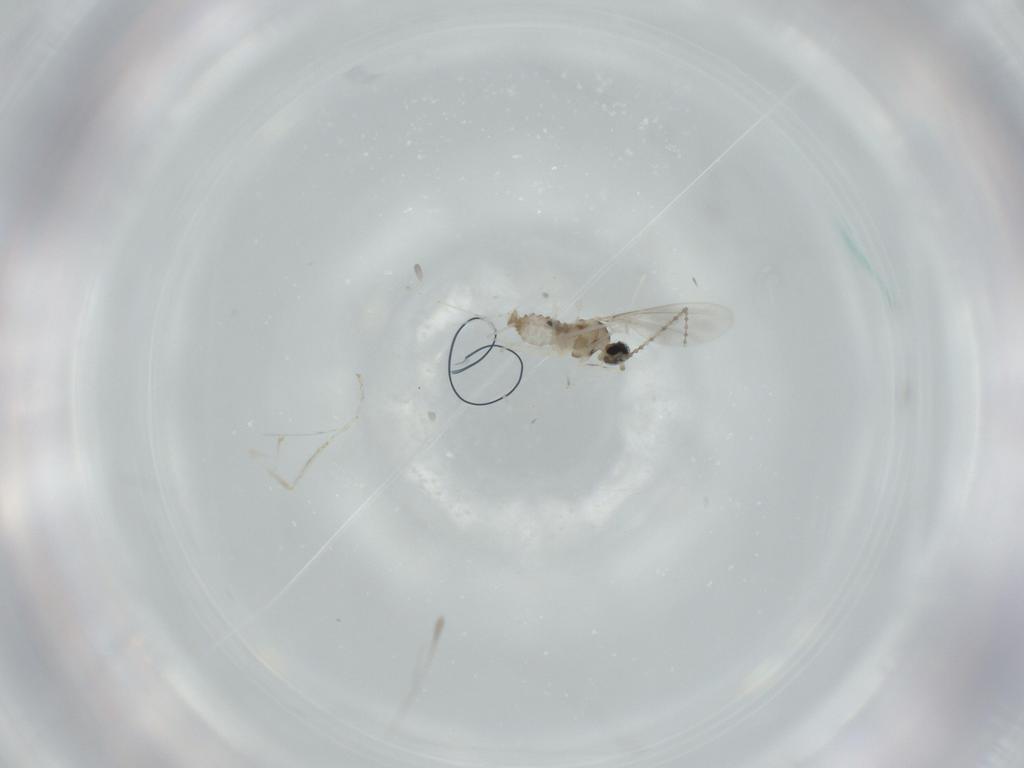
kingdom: Animalia
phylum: Arthropoda
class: Insecta
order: Diptera
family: Cecidomyiidae
